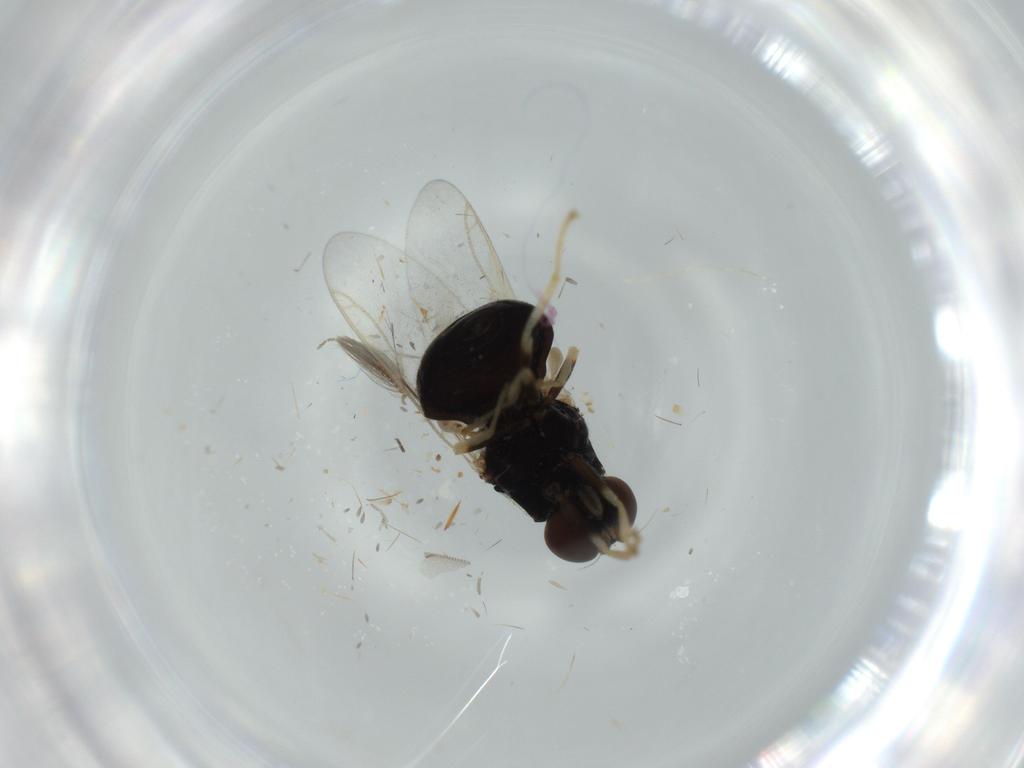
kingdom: Animalia
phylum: Arthropoda
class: Insecta
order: Diptera
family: Stratiomyidae
